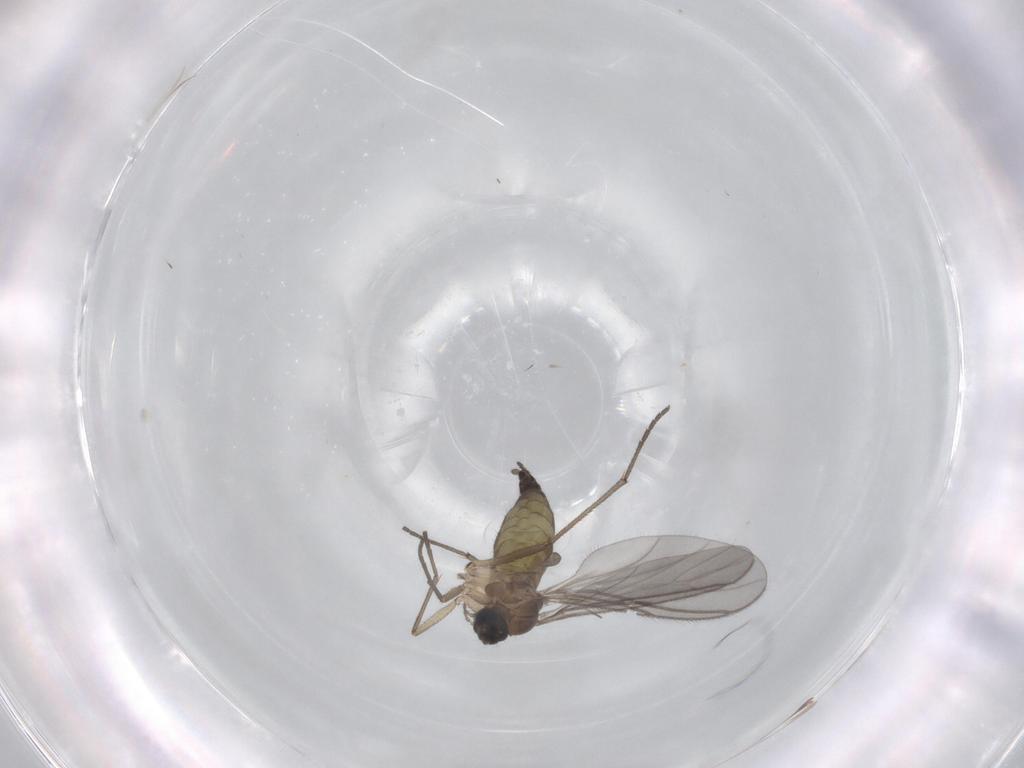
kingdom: Animalia
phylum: Arthropoda
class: Insecta
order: Diptera
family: Sciaridae
